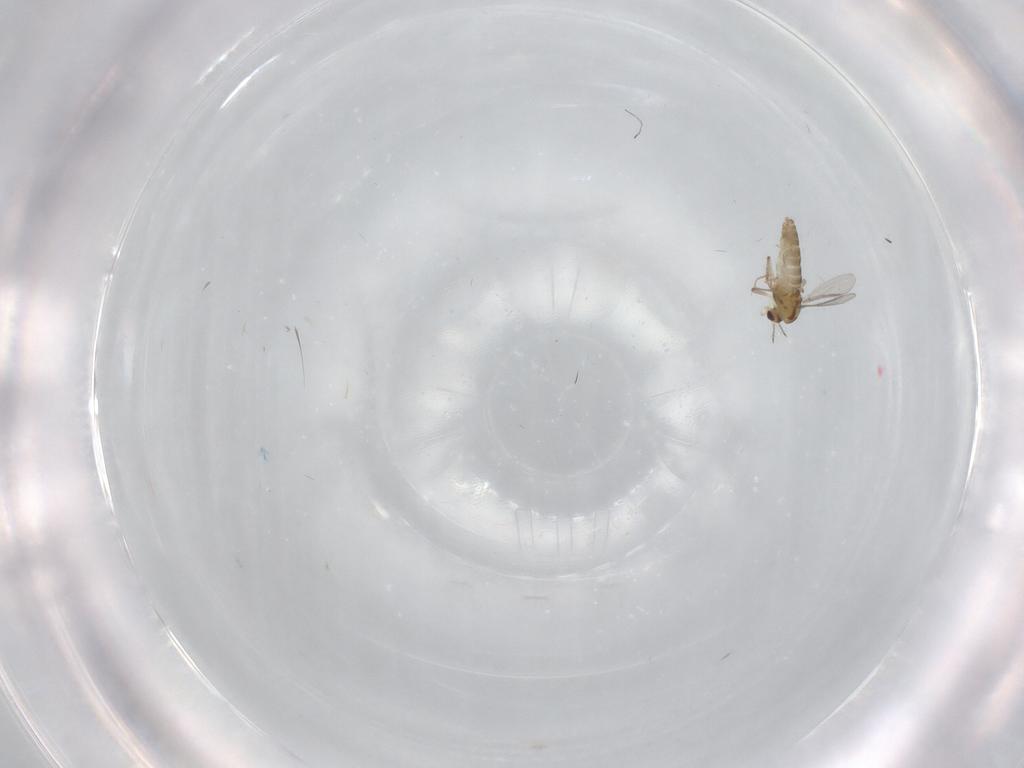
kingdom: Animalia
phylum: Arthropoda
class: Insecta
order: Diptera
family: Chironomidae
